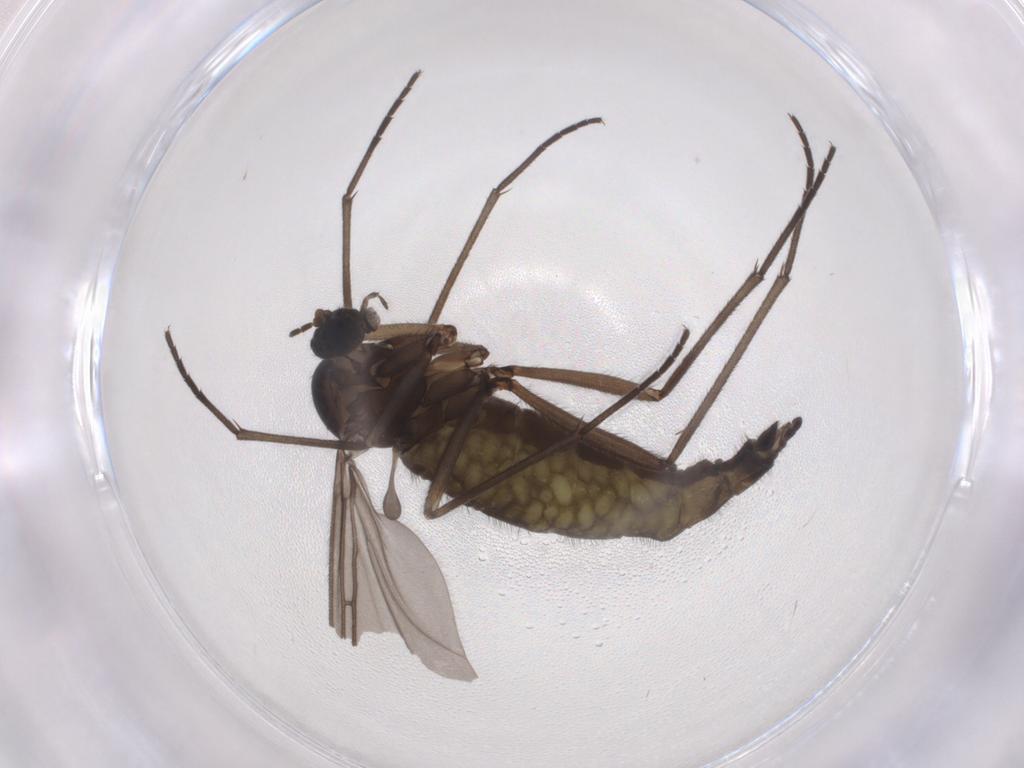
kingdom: Animalia
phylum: Arthropoda
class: Insecta
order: Diptera
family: Sciaridae
